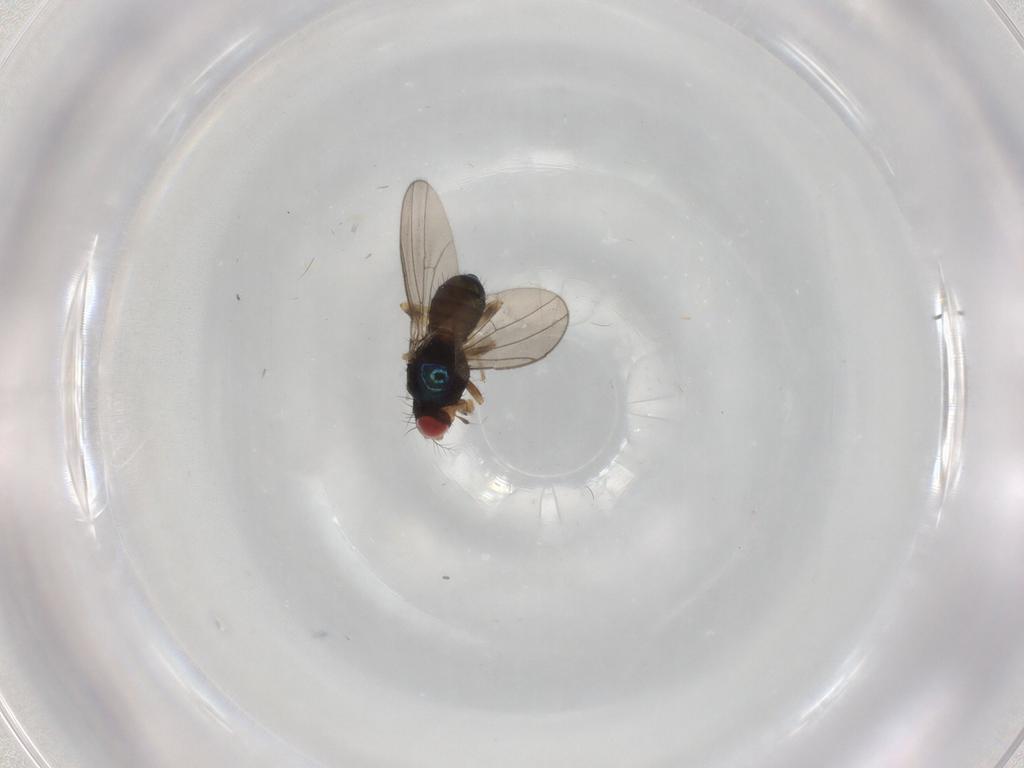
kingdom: Animalia
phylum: Arthropoda
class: Insecta
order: Diptera
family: Drosophilidae
